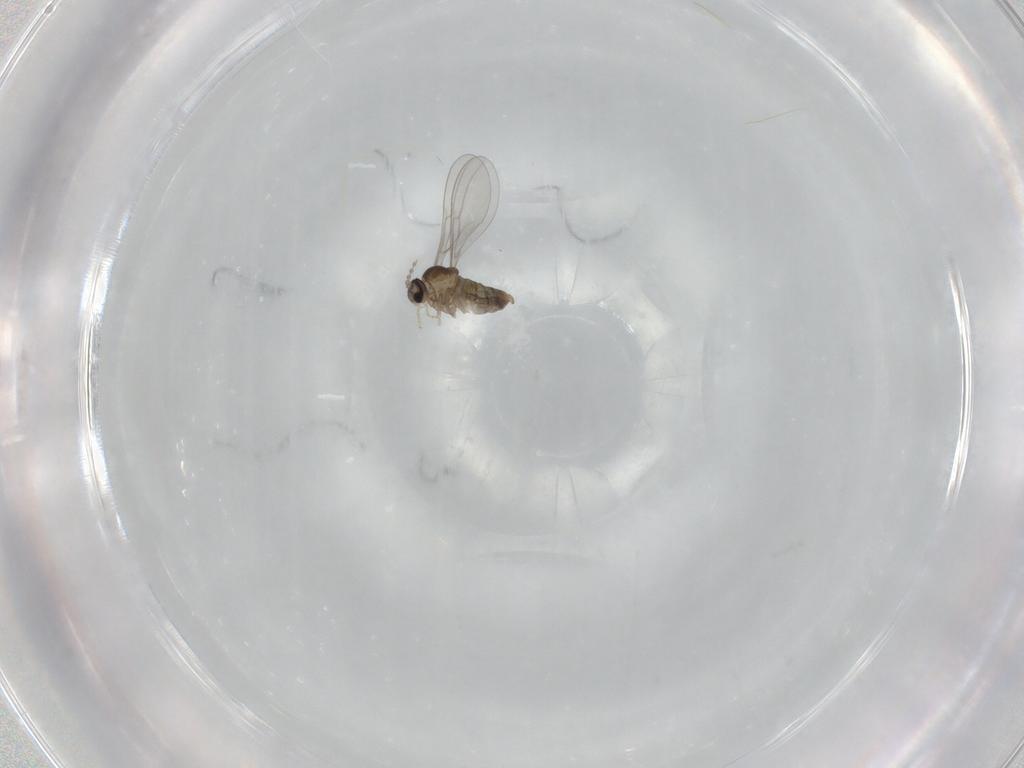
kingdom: Animalia
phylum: Arthropoda
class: Insecta
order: Diptera
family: Cecidomyiidae
